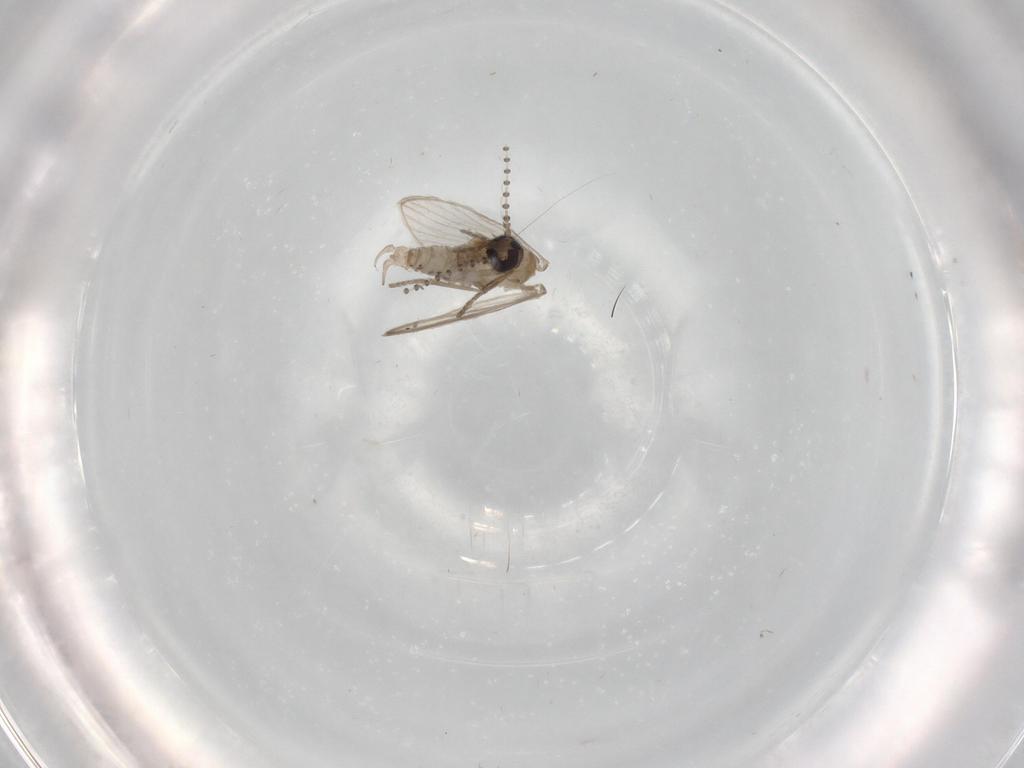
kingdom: Animalia
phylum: Arthropoda
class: Insecta
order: Diptera
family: Psychodidae
